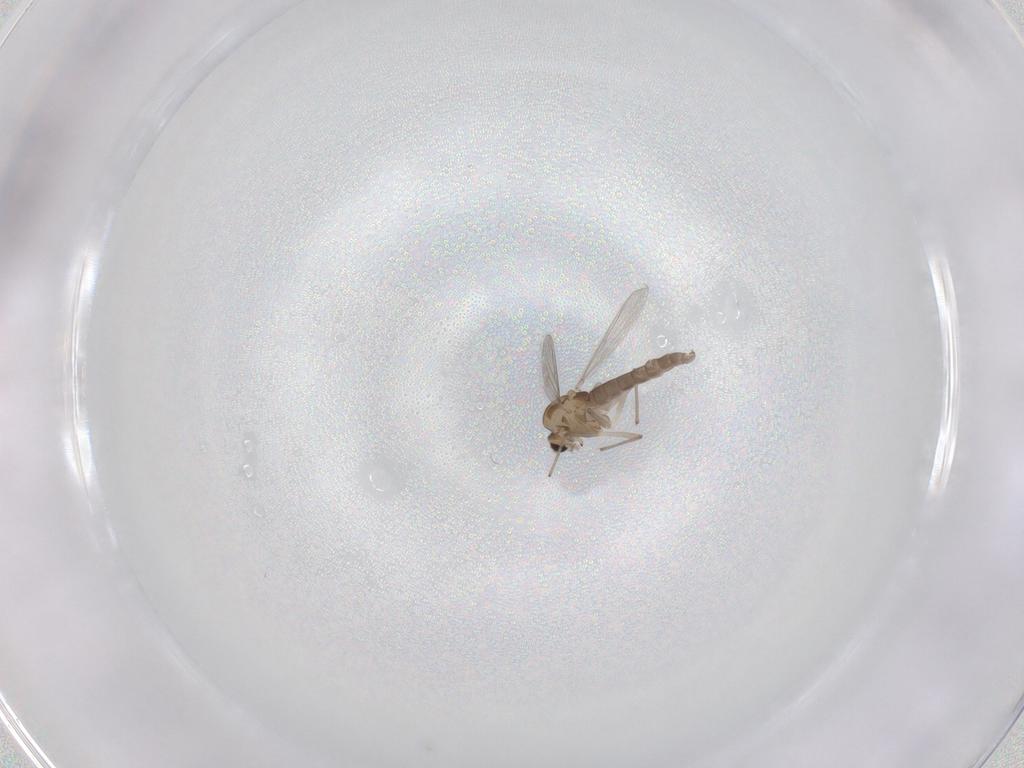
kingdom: Animalia
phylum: Arthropoda
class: Insecta
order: Diptera
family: Chironomidae
